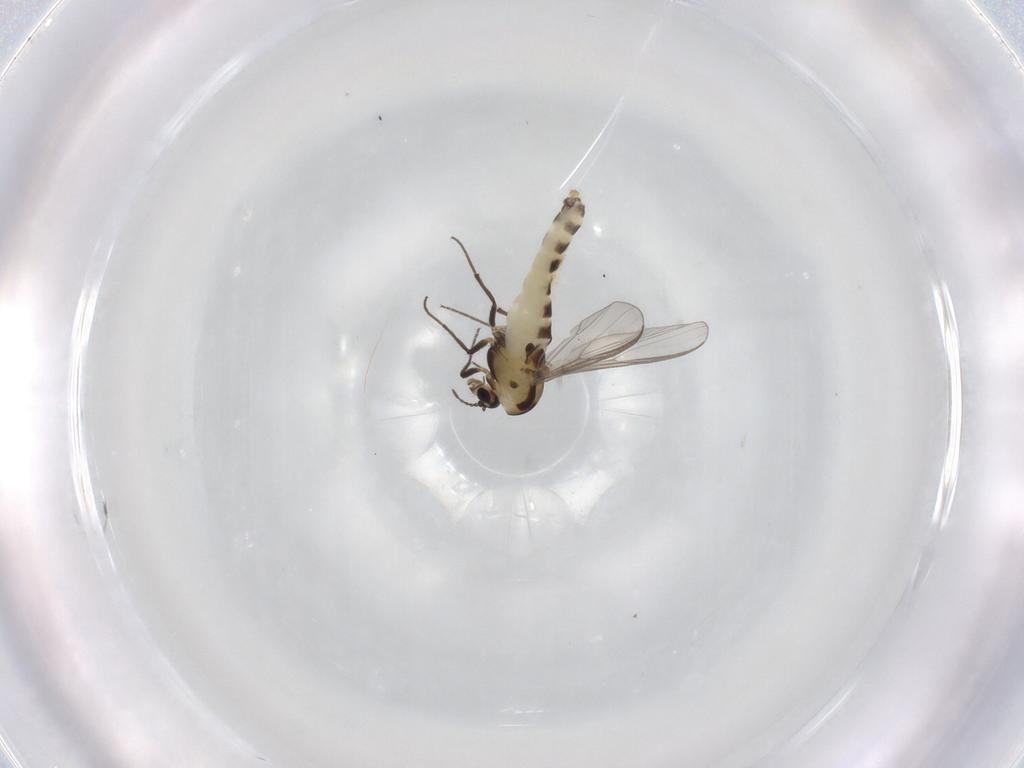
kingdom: Animalia
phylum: Arthropoda
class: Insecta
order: Diptera
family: Chironomidae
